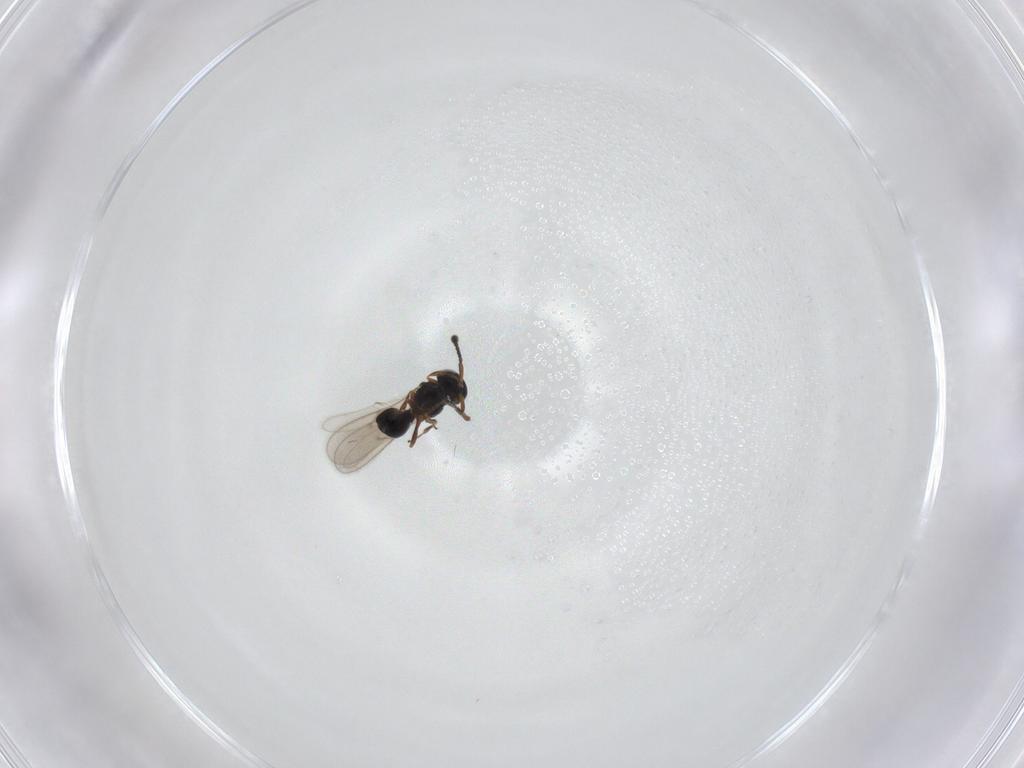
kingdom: Animalia
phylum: Arthropoda
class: Insecta
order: Hymenoptera
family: Scelionidae
